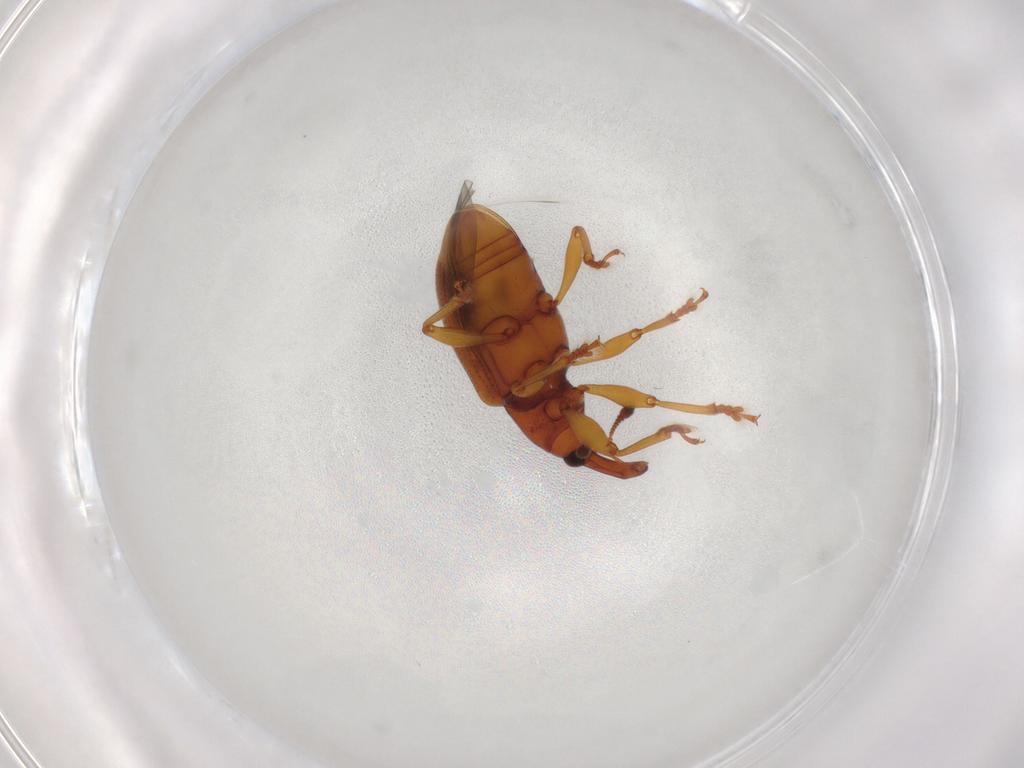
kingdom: Animalia
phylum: Arthropoda
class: Insecta
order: Coleoptera
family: Curculionidae
